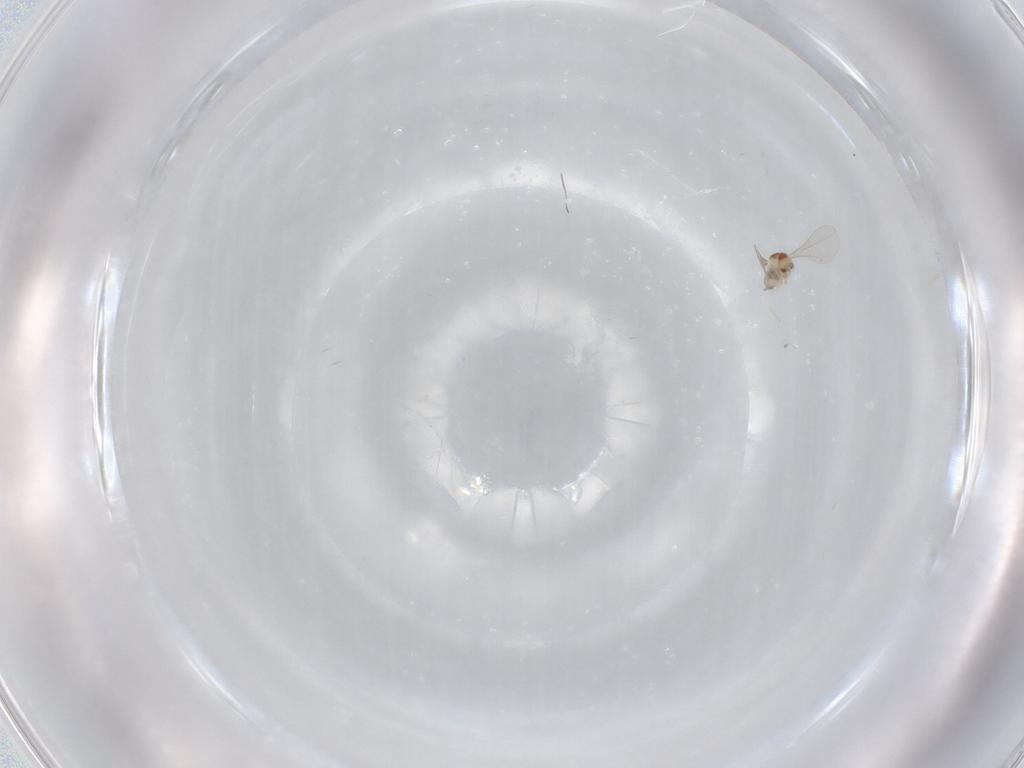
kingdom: Animalia
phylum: Arthropoda
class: Insecta
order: Diptera
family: Cecidomyiidae
